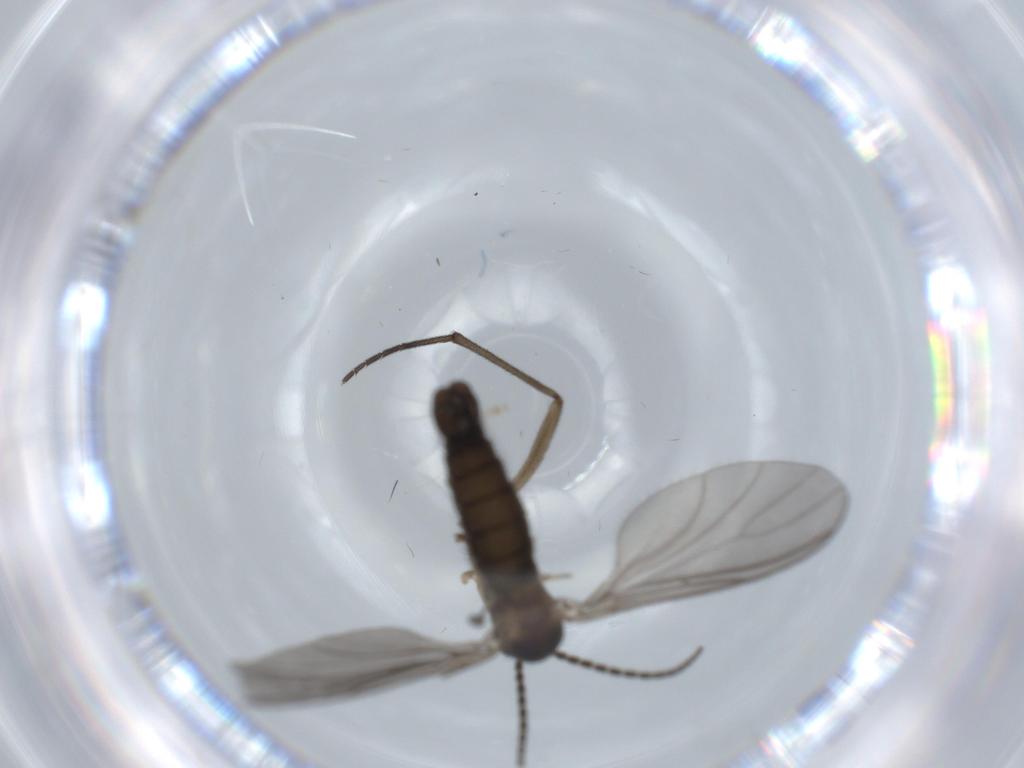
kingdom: Animalia
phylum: Arthropoda
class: Insecta
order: Diptera
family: Sciaridae
